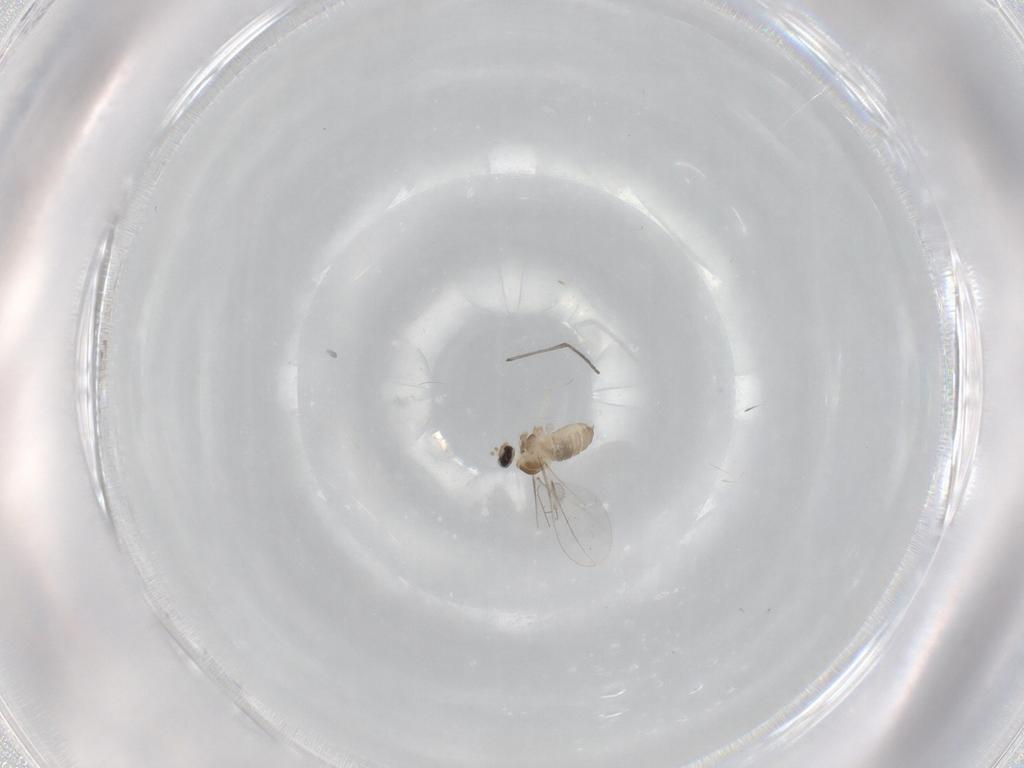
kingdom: Animalia
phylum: Arthropoda
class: Insecta
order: Diptera
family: Cecidomyiidae
